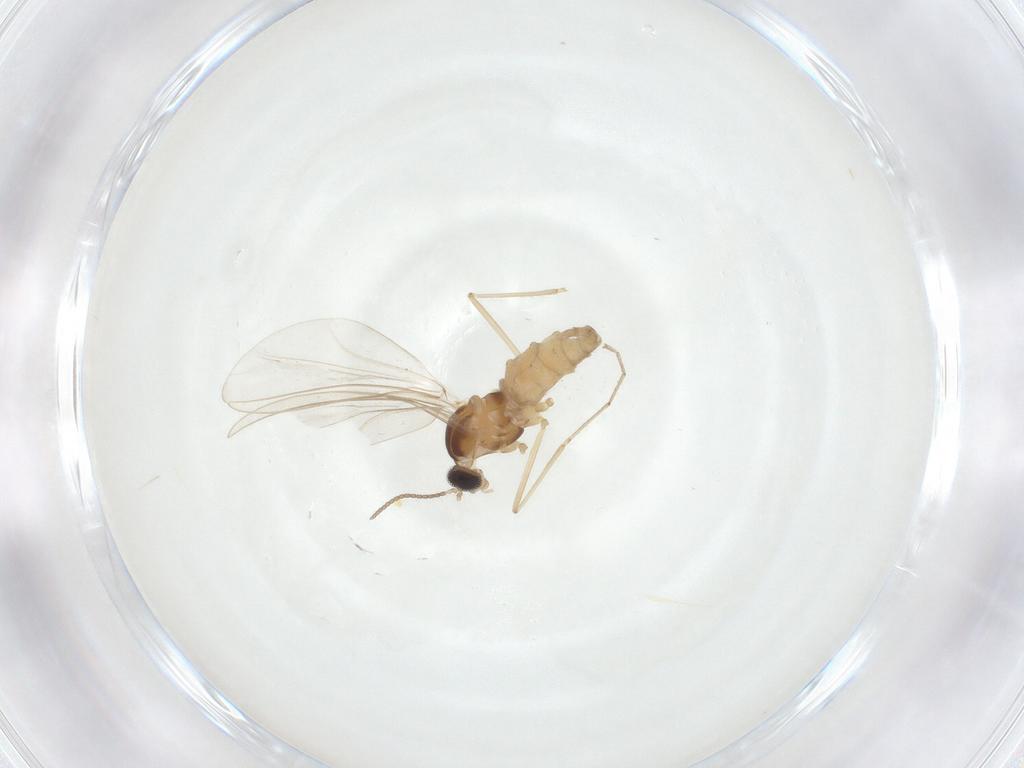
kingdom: Animalia
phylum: Arthropoda
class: Insecta
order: Diptera
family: Cecidomyiidae
